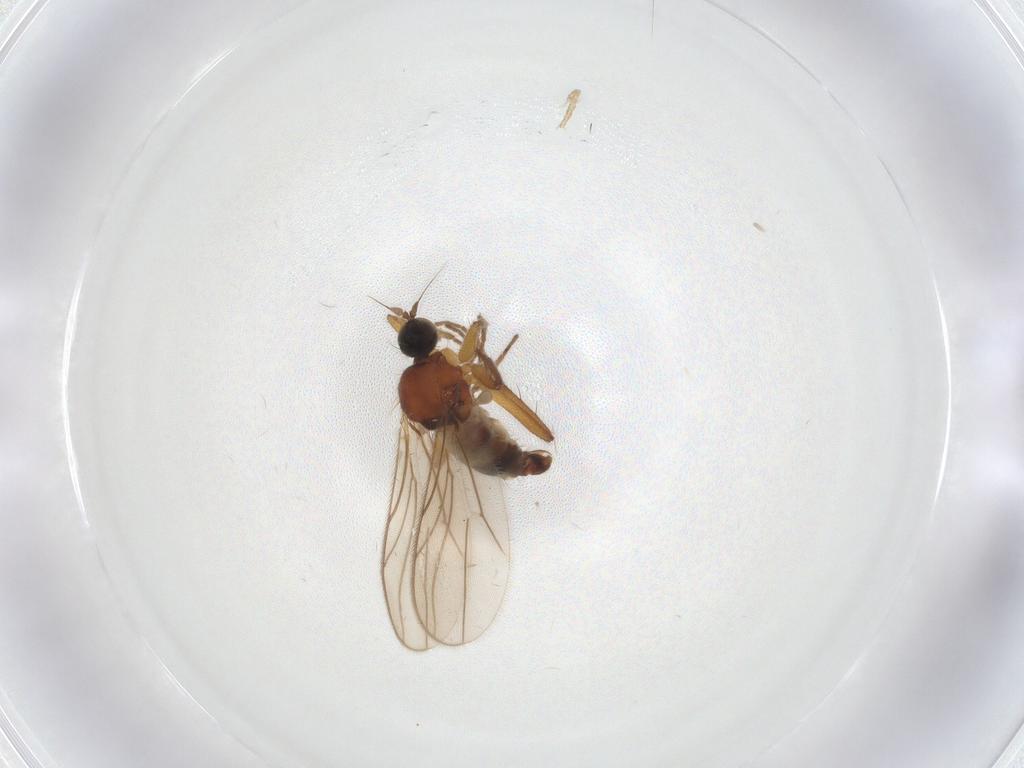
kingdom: Animalia
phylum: Arthropoda
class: Insecta
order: Diptera
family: Hybotidae
